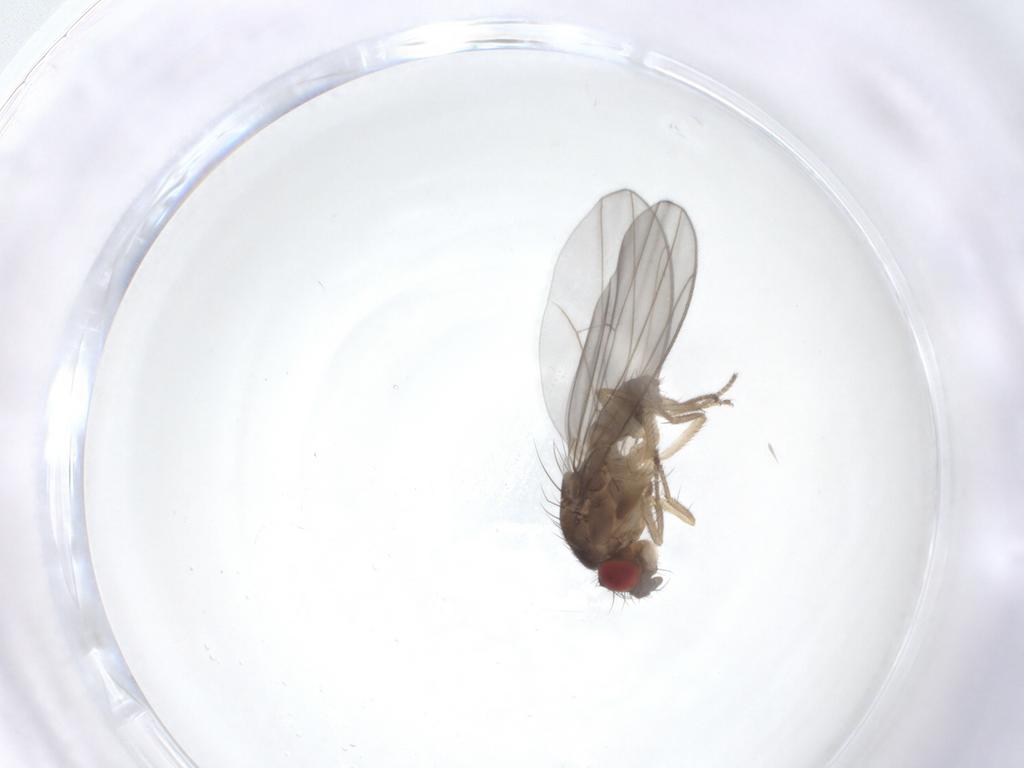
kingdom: Animalia
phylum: Arthropoda
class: Insecta
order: Diptera
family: Drosophilidae
